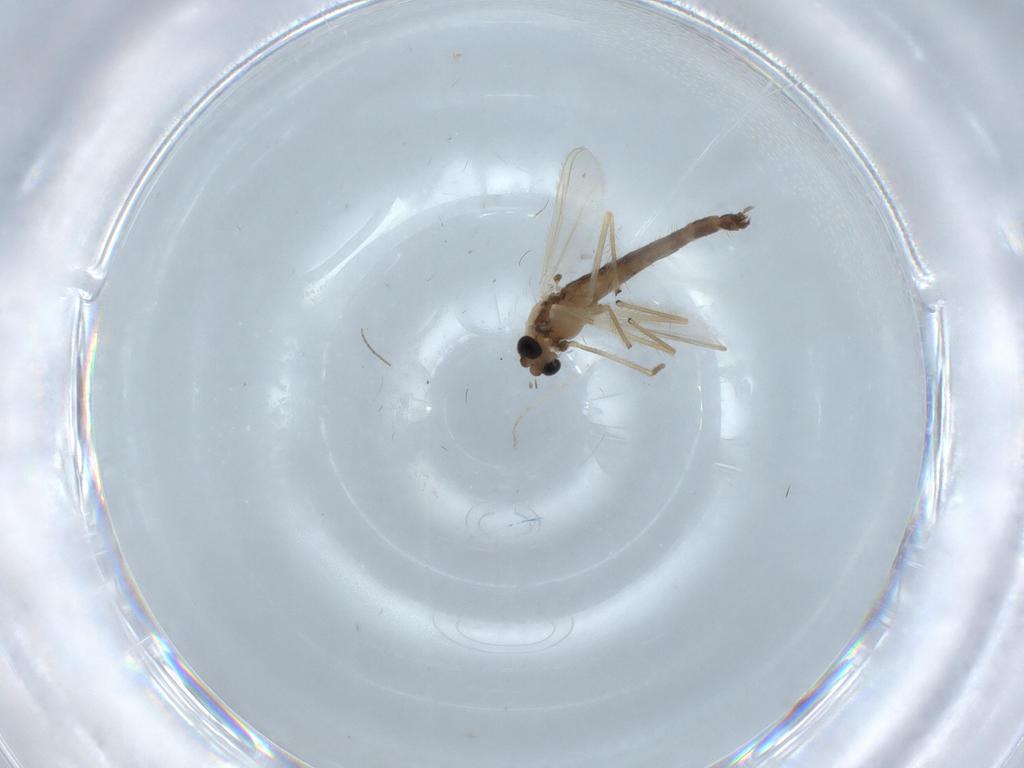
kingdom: Animalia
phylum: Arthropoda
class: Insecta
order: Diptera
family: Chironomidae
